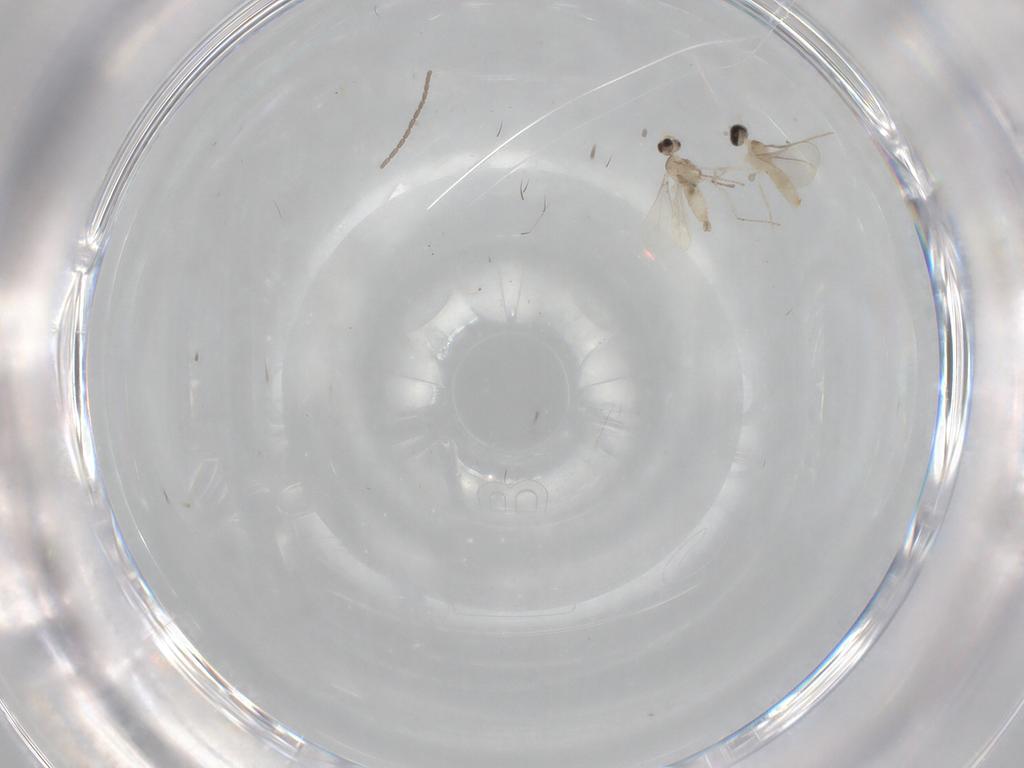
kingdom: Animalia
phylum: Arthropoda
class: Insecta
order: Diptera
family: Cecidomyiidae
